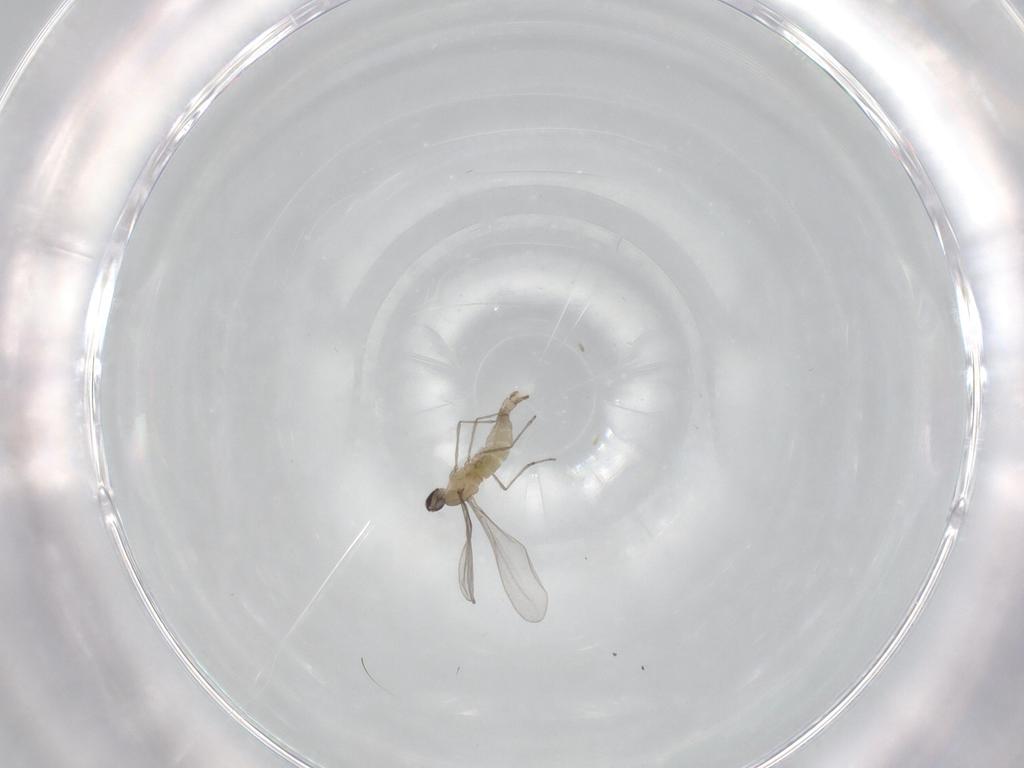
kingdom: Animalia
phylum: Arthropoda
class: Insecta
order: Diptera
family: Cecidomyiidae
